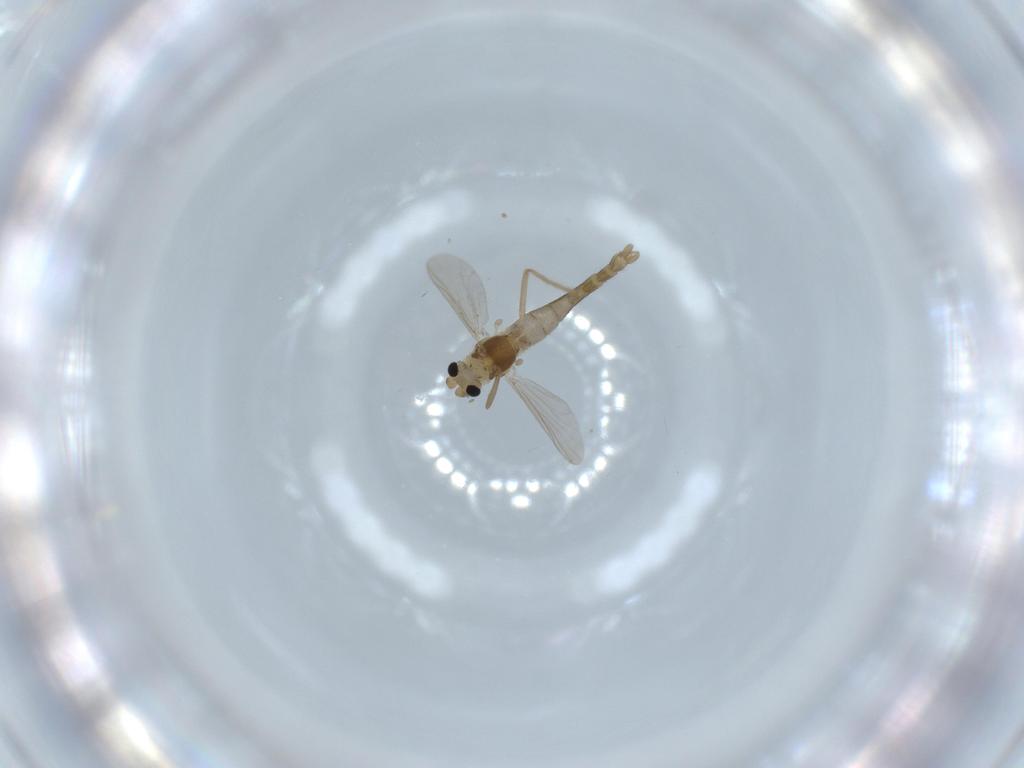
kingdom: Animalia
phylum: Arthropoda
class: Insecta
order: Diptera
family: Chironomidae
